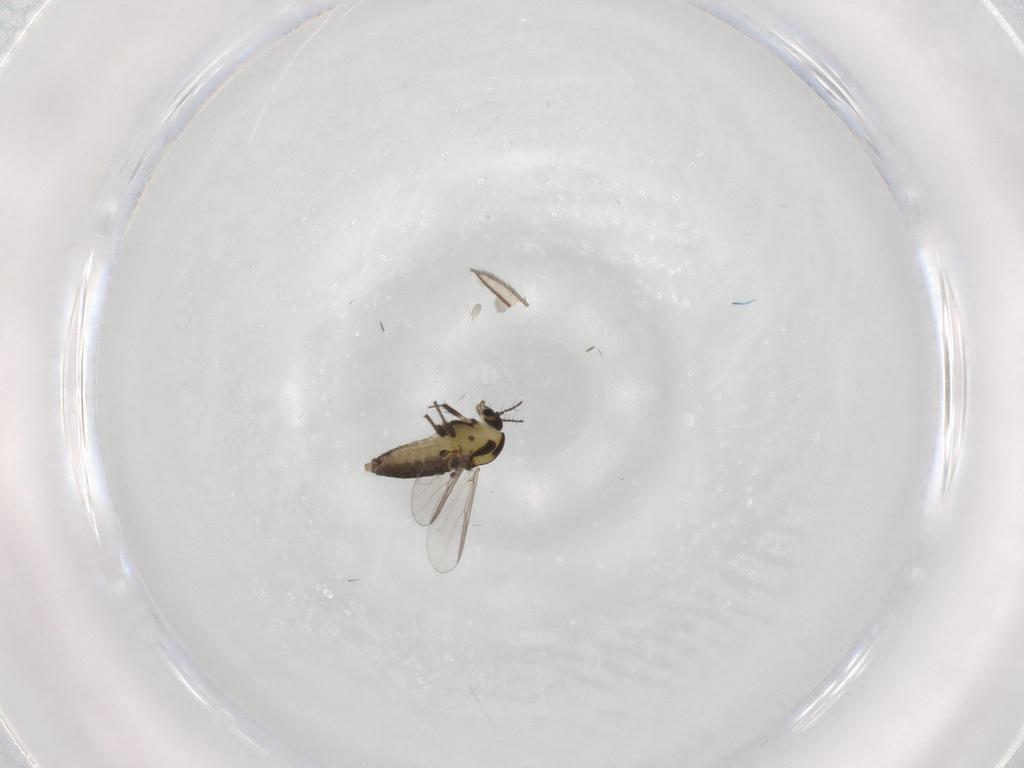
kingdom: Animalia
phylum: Arthropoda
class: Insecta
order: Diptera
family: Chironomidae
